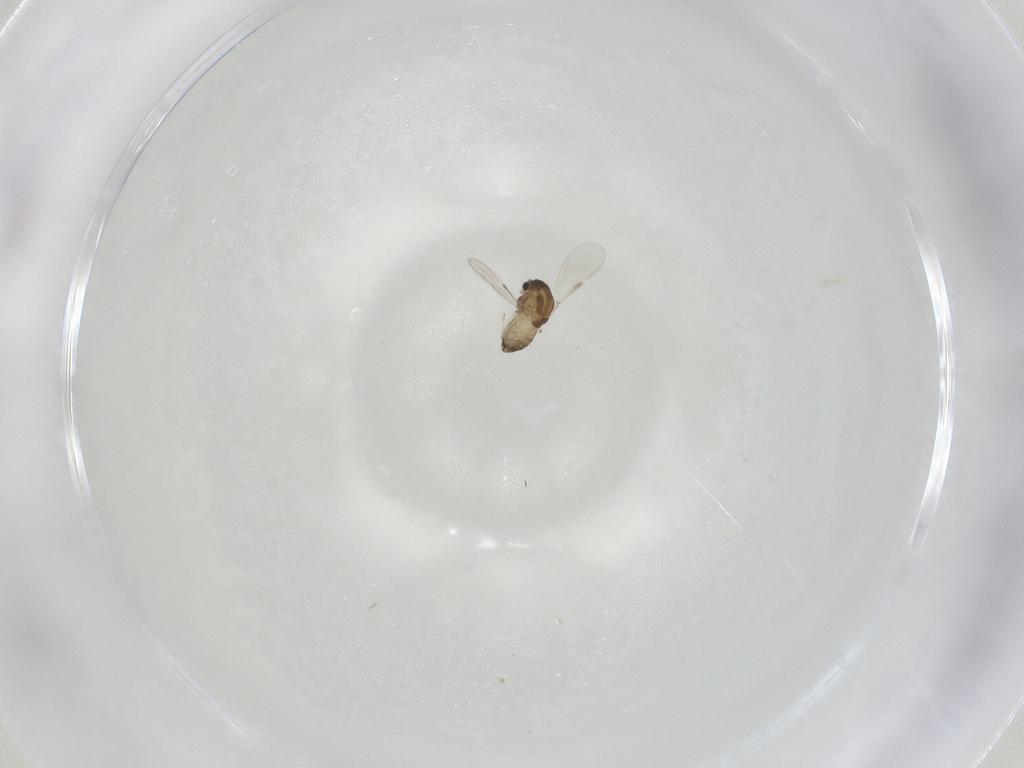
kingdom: Animalia
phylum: Arthropoda
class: Insecta
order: Diptera
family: Chironomidae
